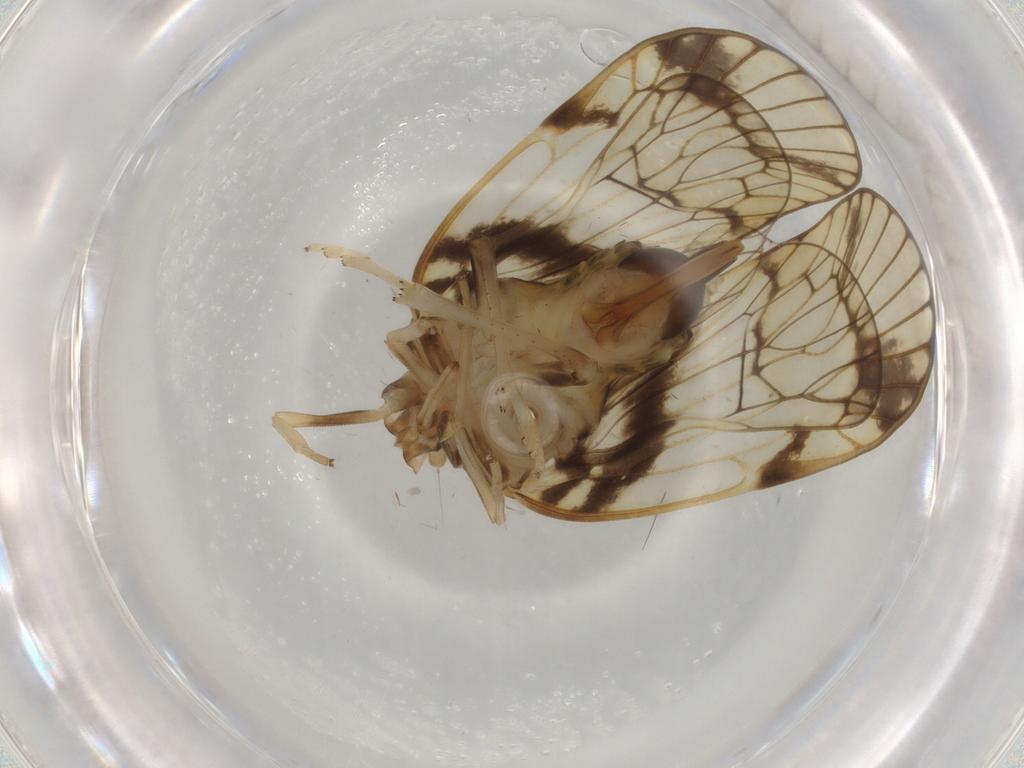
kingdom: Animalia
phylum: Arthropoda
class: Insecta
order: Hemiptera
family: Cixiidae
